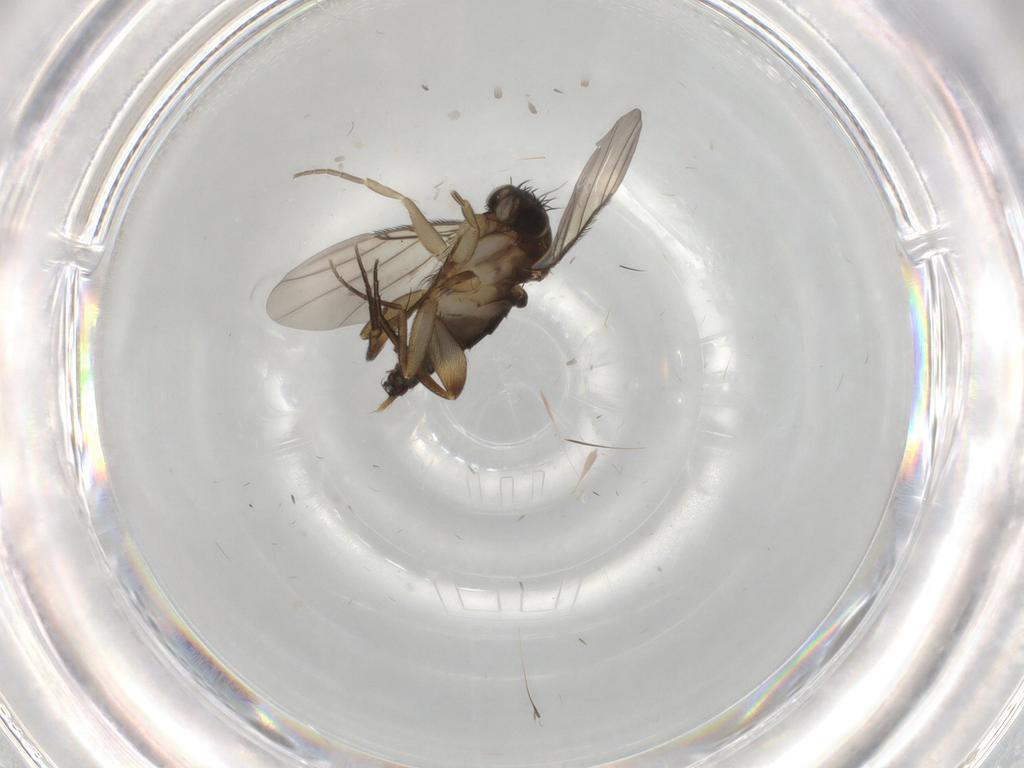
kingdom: Animalia
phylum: Arthropoda
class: Insecta
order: Diptera
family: Phoridae
